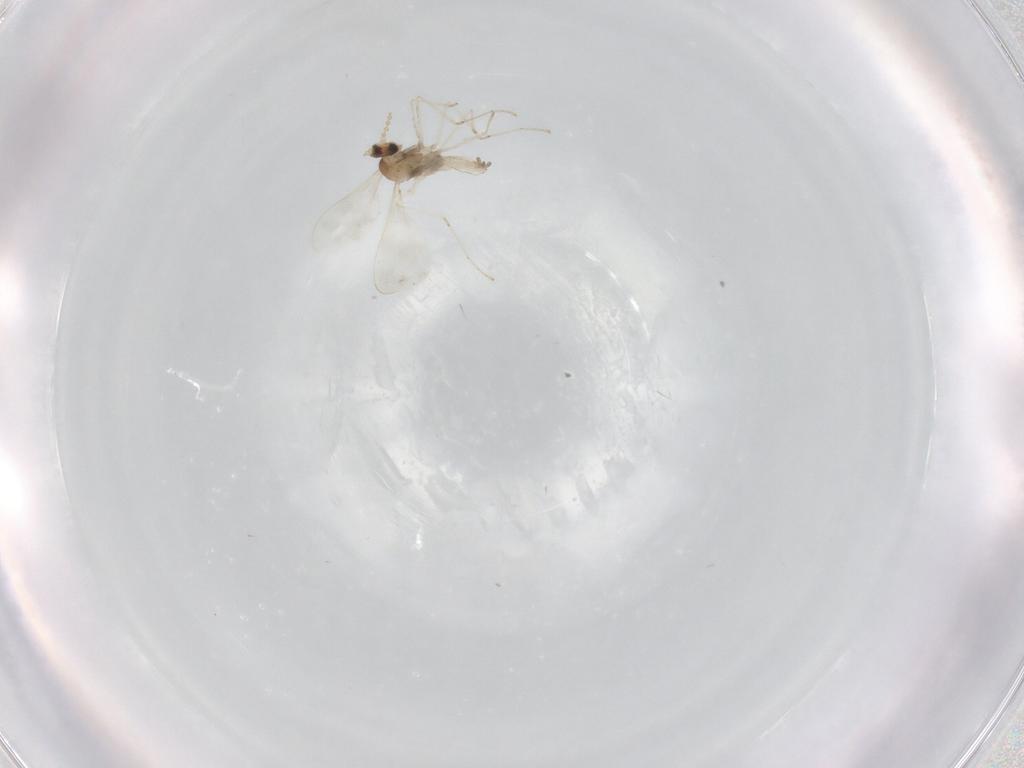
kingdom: Animalia
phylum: Arthropoda
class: Insecta
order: Diptera
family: Cecidomyiidae
